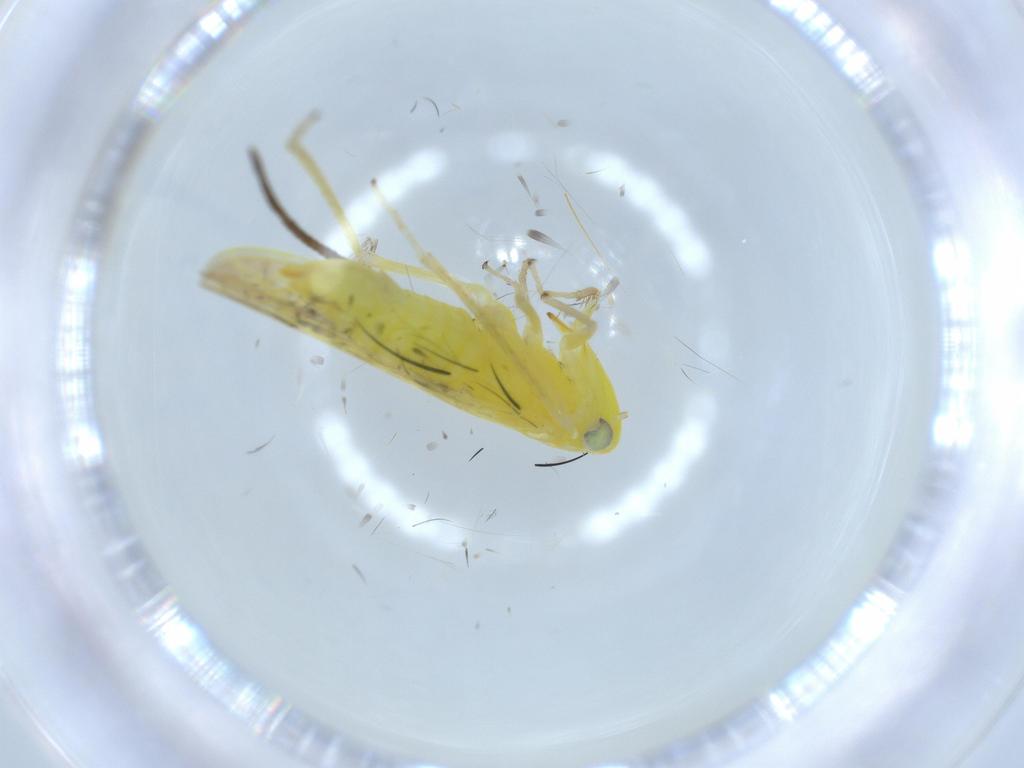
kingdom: Animalia
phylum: Arthropoda
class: Insecta
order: Hemiptera
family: Cicadellidae
